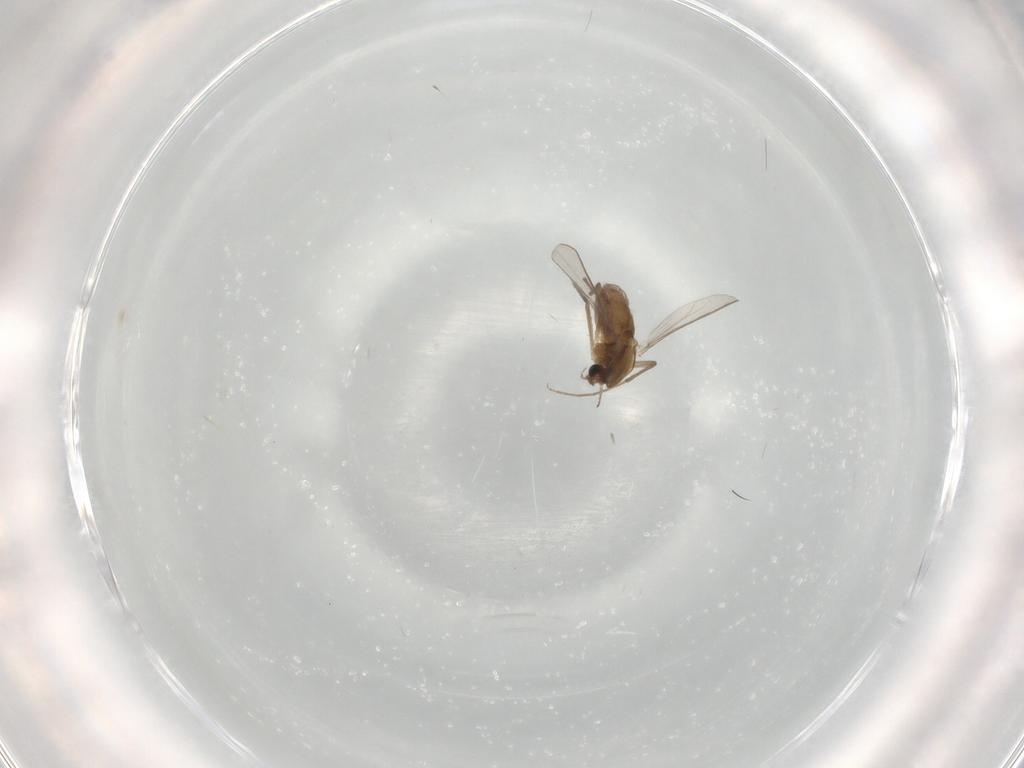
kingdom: Animalia
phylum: Arthropoda
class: Insecta
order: Diptera
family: Chironomidae
